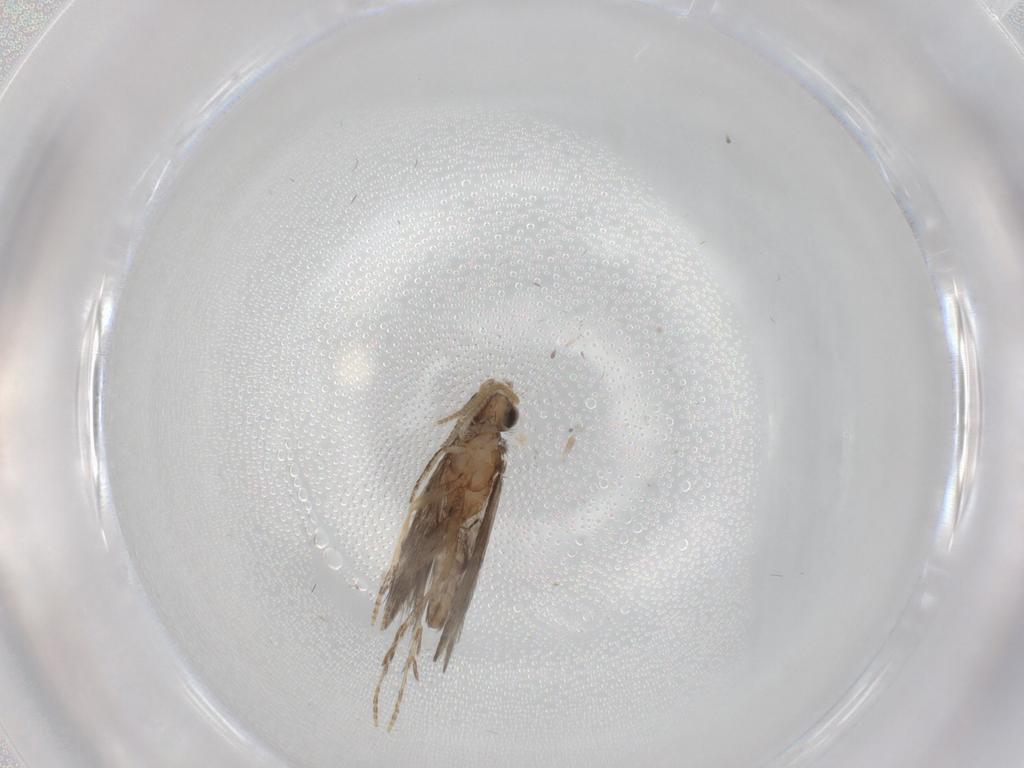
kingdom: Animalia
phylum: Arthropoda
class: Insecta
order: Trichoptera
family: Hydroptilidae
